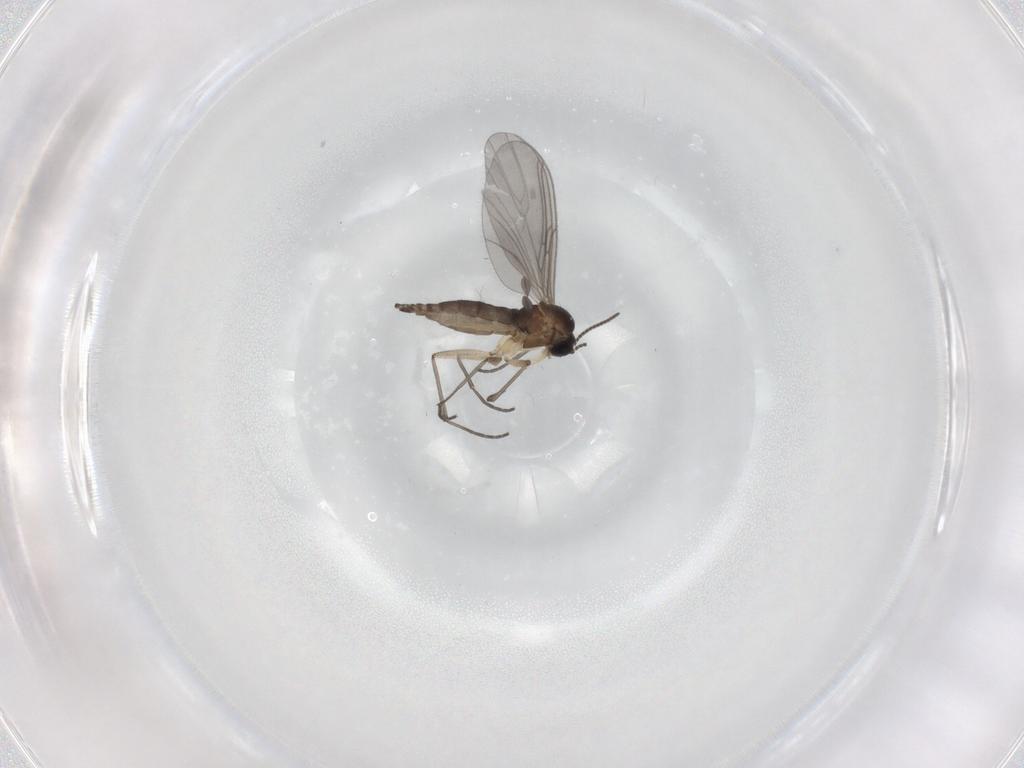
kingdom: Animalia
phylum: Arthropoda
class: Insecta
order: Diptera
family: Sciaridae
